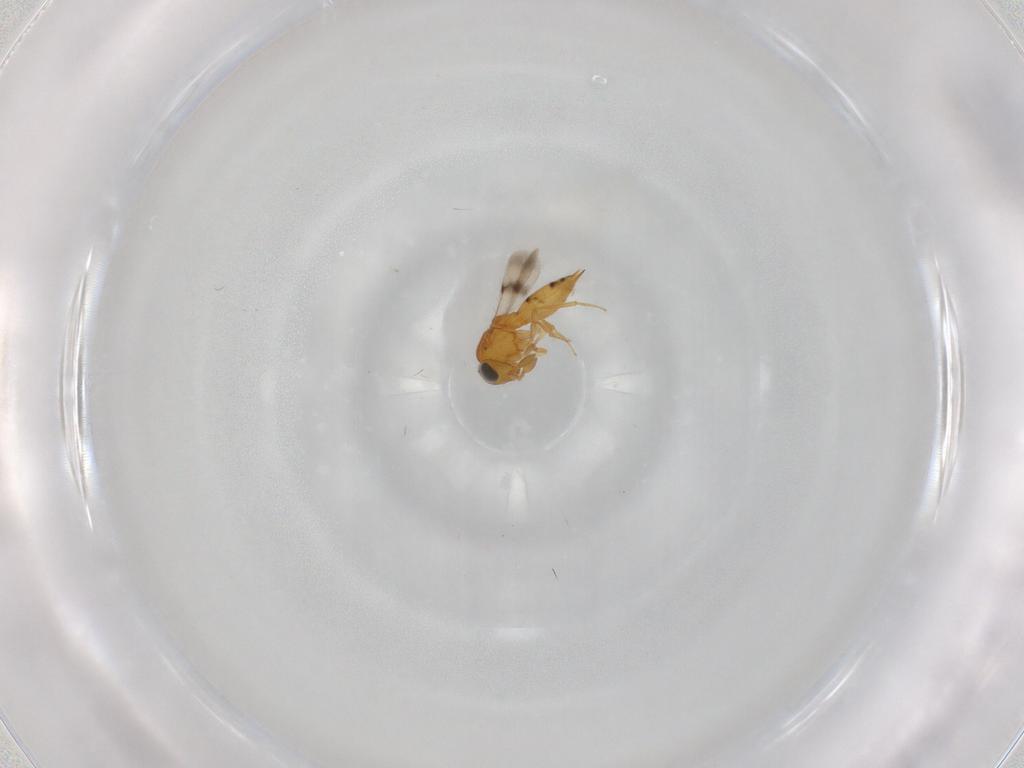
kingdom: Animalia
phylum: Arthropoda
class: Insecta
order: Hymenoptera
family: Scelionidae
